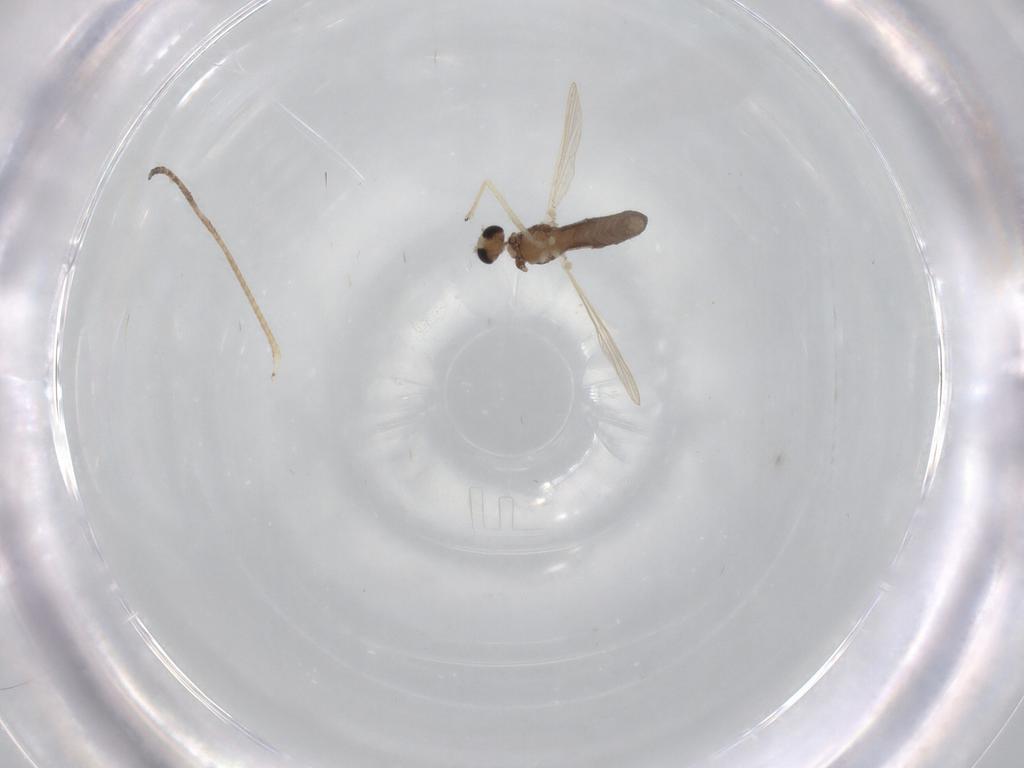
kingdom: Animalia
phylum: Arthropoda
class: Insecta
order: Diptera
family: Chironomidae
